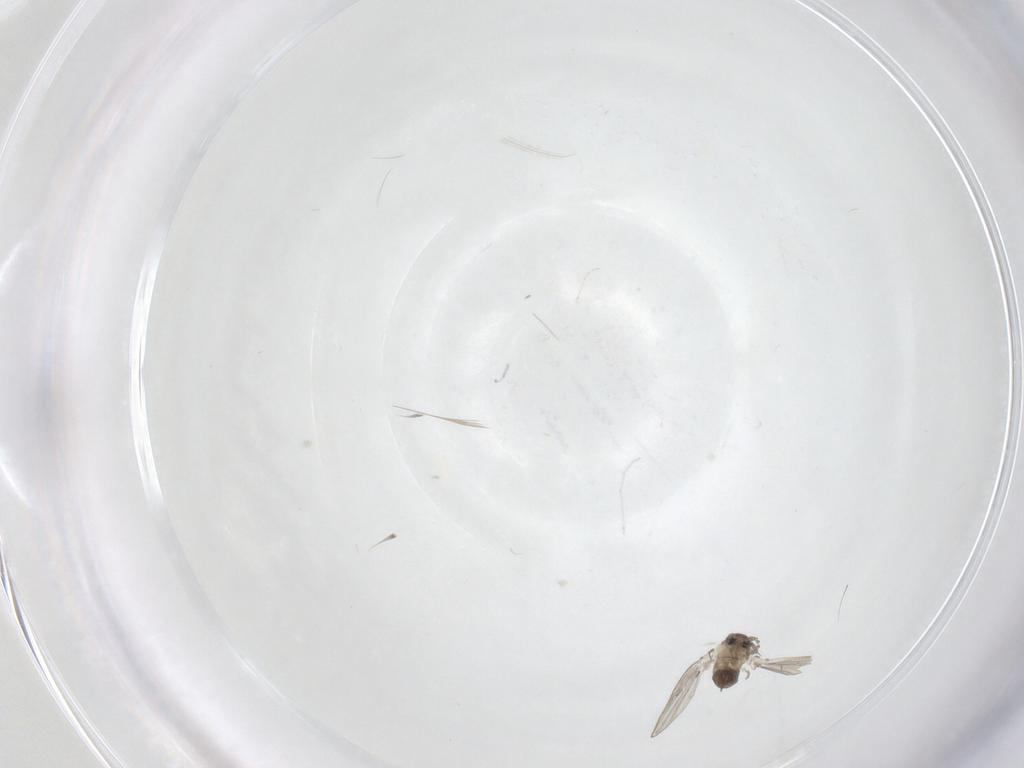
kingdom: Animalia
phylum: Arthropoda
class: Insecta
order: Diptera
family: Psychodidae
